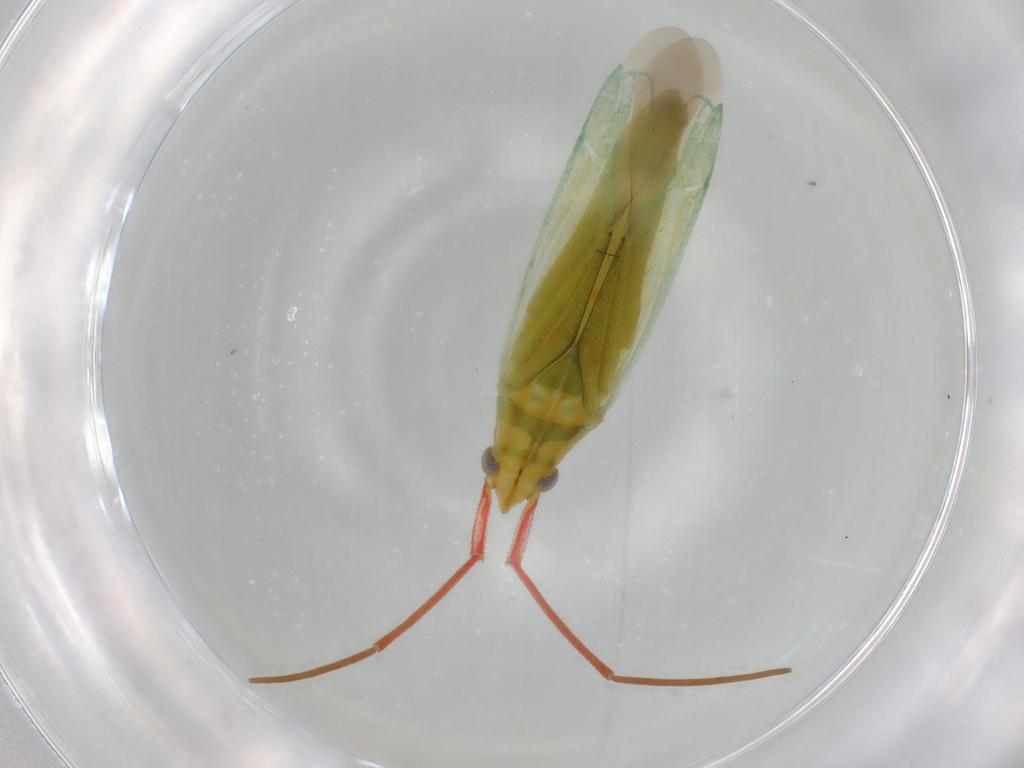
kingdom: Animalia
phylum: Arthropoda
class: Insecta
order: Hemiptera
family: Aphididae
